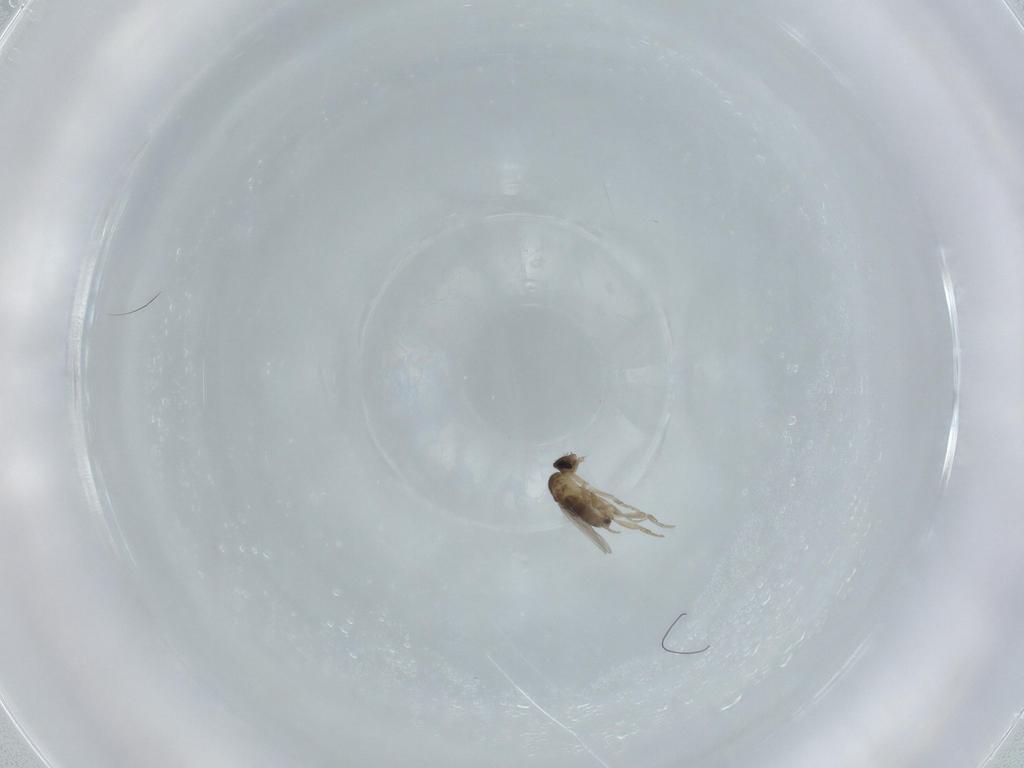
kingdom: Animalia
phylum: Arthropoda
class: Insecta
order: Diptera
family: Phoridae
